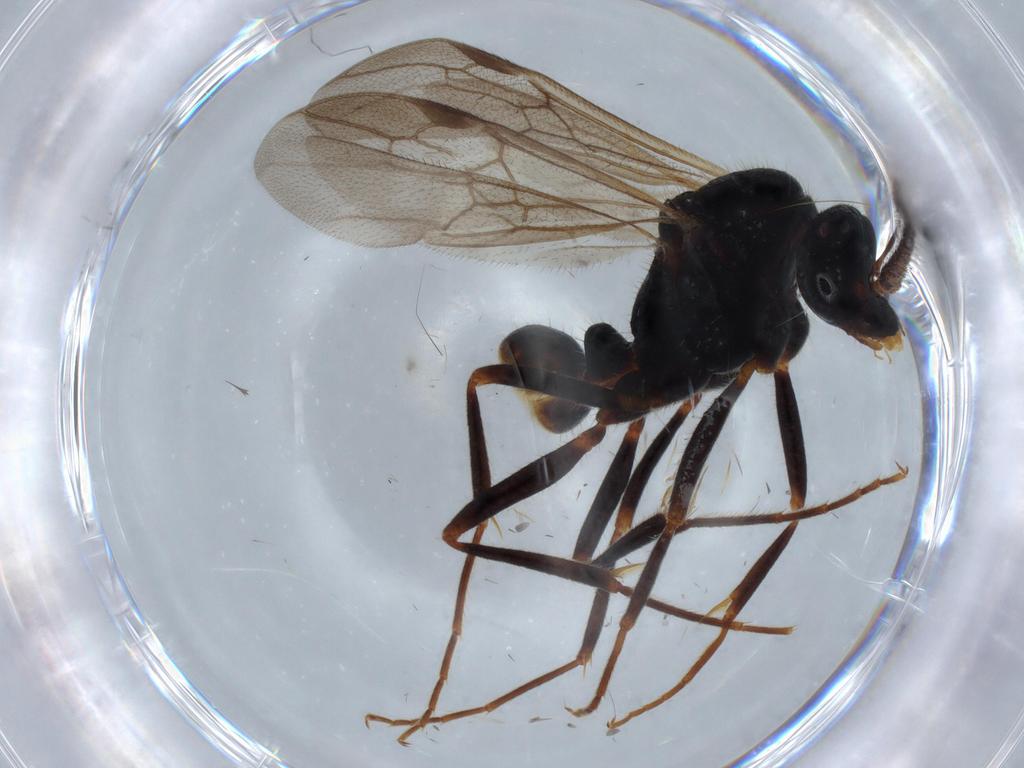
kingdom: Animalia
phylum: Arthropoda
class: Insecta
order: Hymenoptera
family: Formicidae
